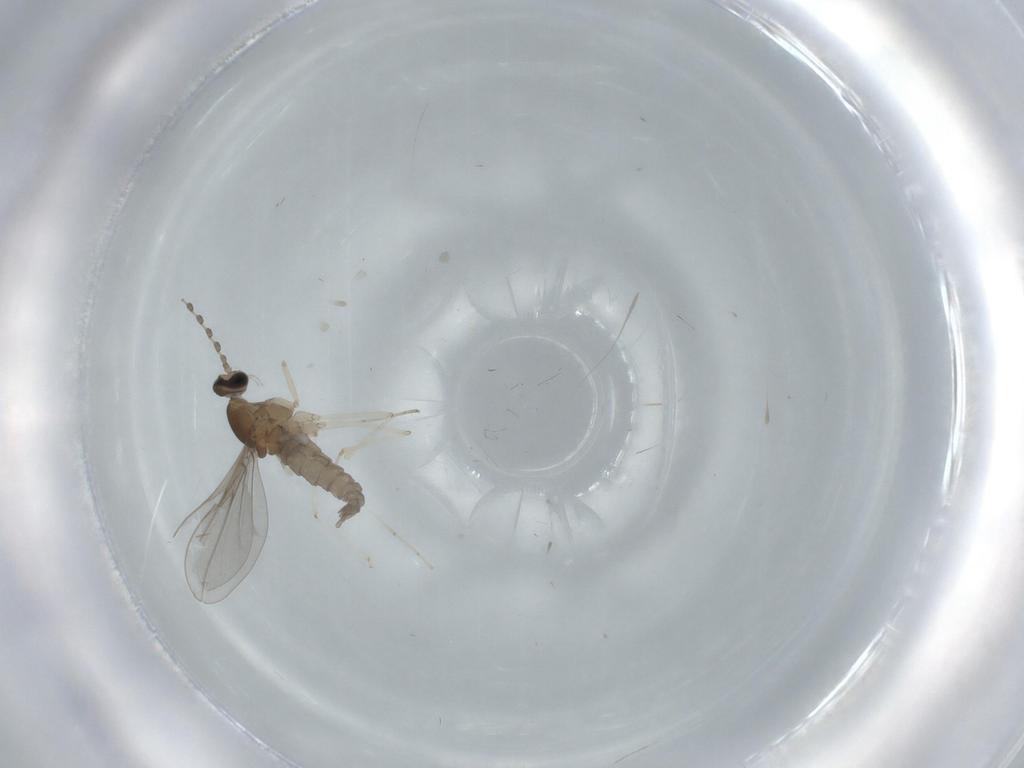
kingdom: Animalia
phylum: Arthropoda
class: Insecta
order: Diptera
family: Cecidomyiidae
